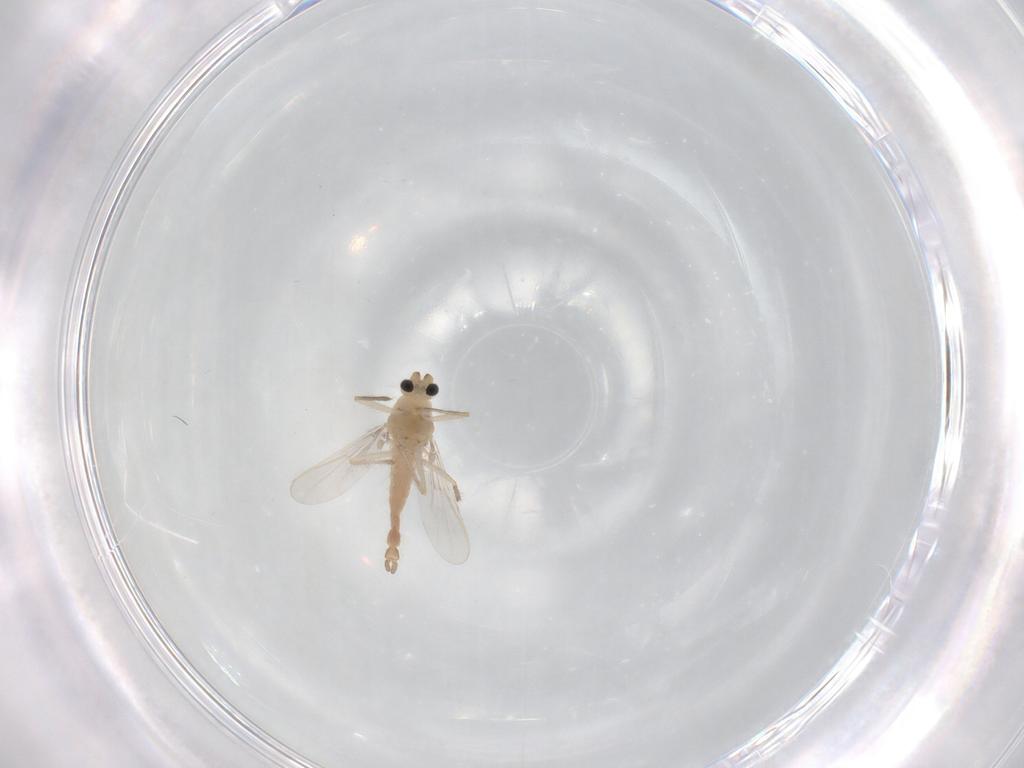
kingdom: Animalia
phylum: Arthropoda
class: Insecta
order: Diptera
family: Chironomidae
